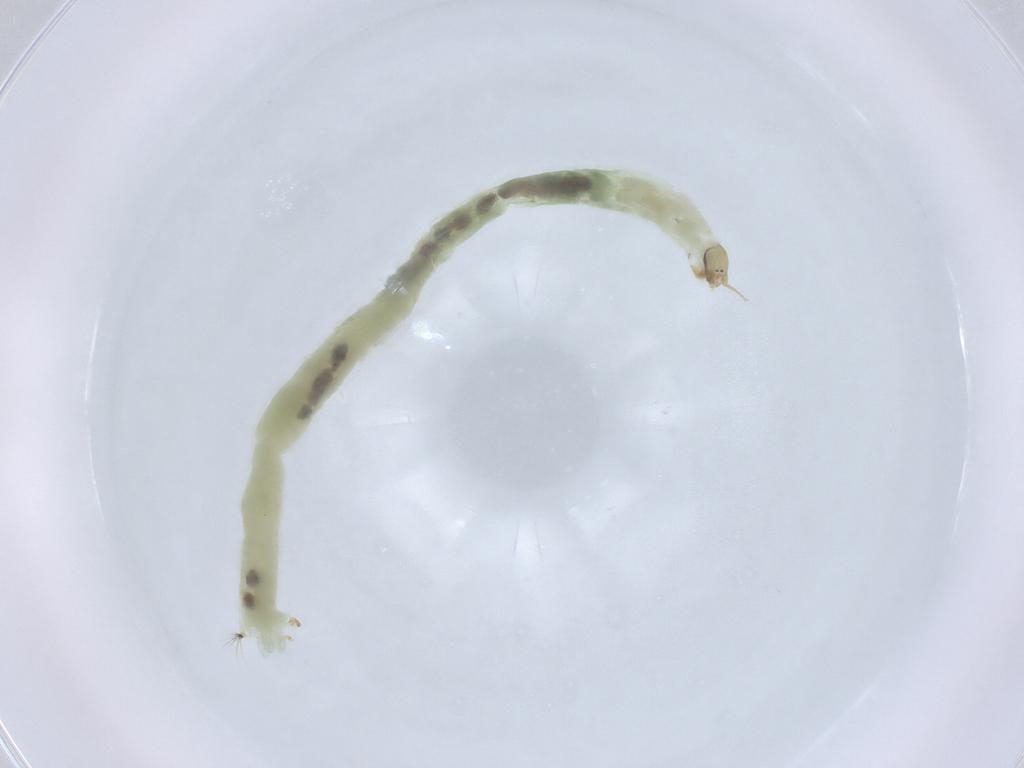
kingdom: Animalia
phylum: Arthropoda
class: Insecta
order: Diptera
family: Chironomidae
